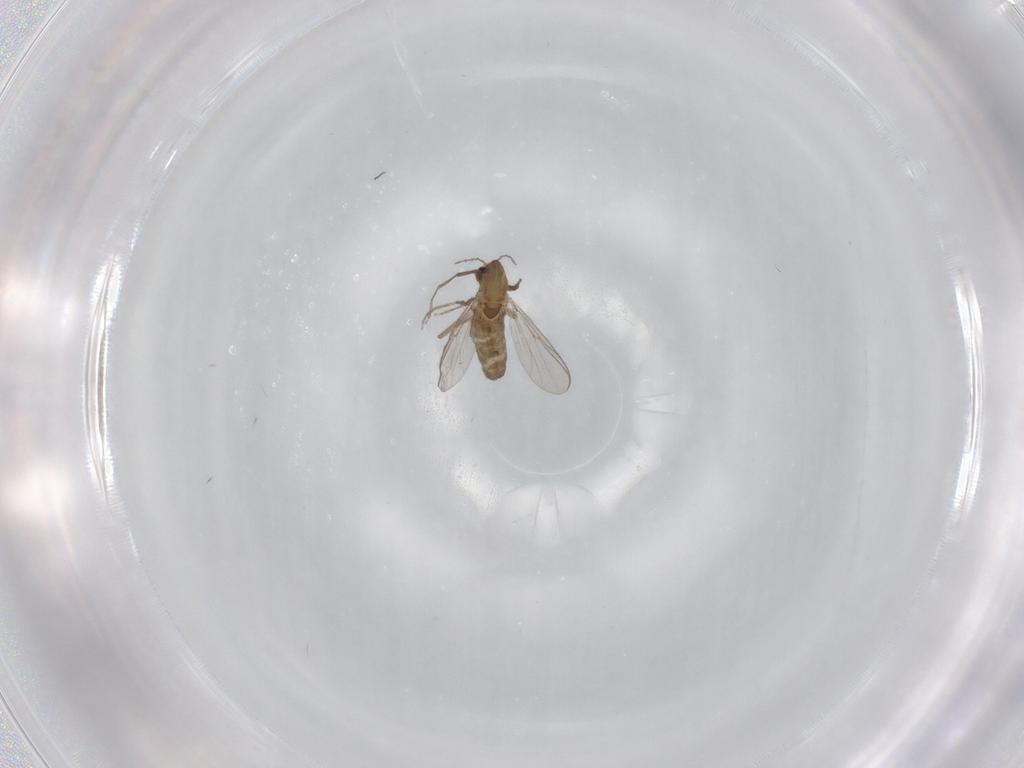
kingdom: Animalia
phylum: Arthropoda
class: Insecta
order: Diptera
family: Chironomidae
